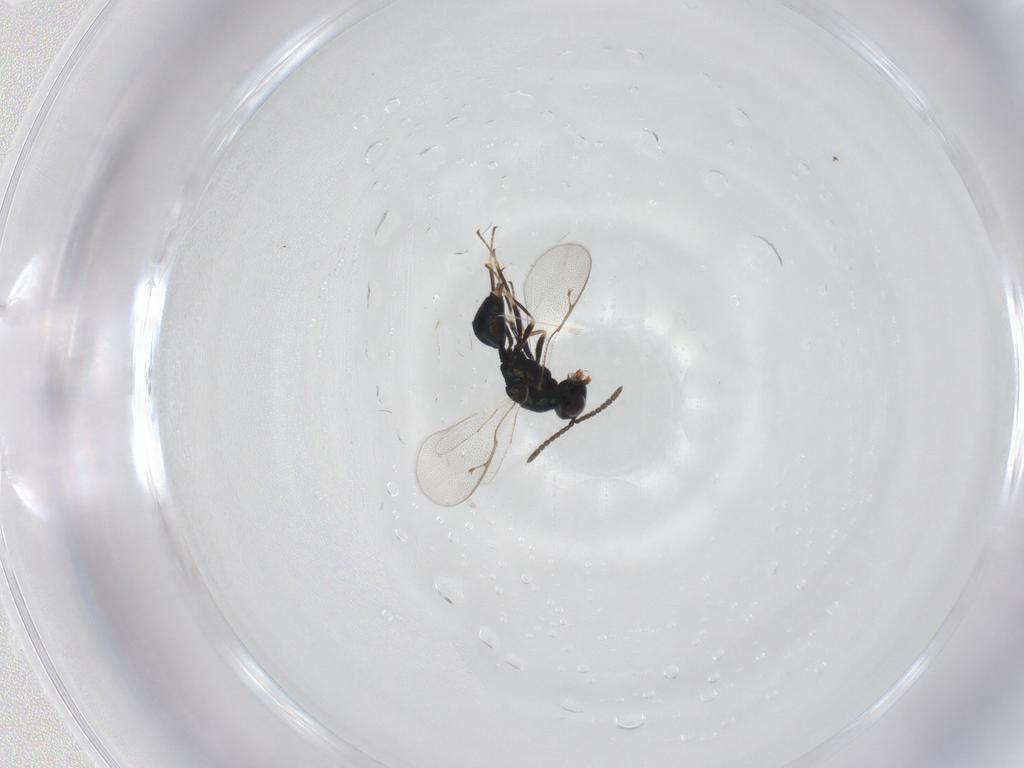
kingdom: Animalia
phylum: Arthropoda
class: Insecta
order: Hymenoptera
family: Pteromalidae
